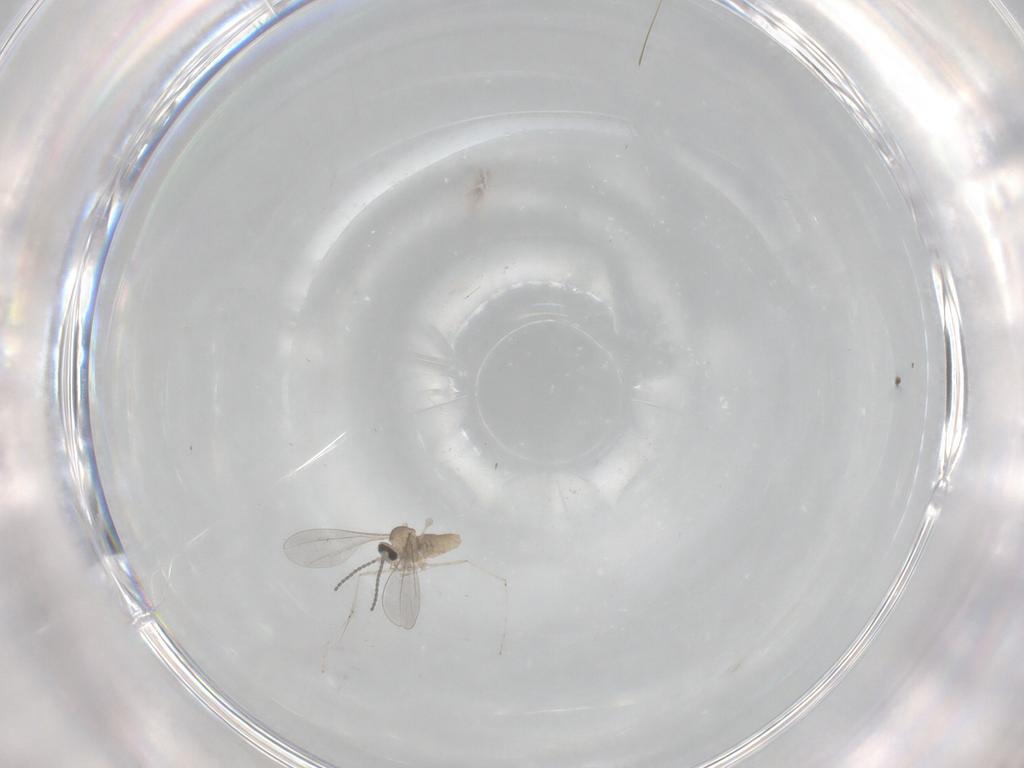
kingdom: Animalia
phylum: Arthropoda
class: Insecta
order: Diptera
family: Cecidomyiidae
